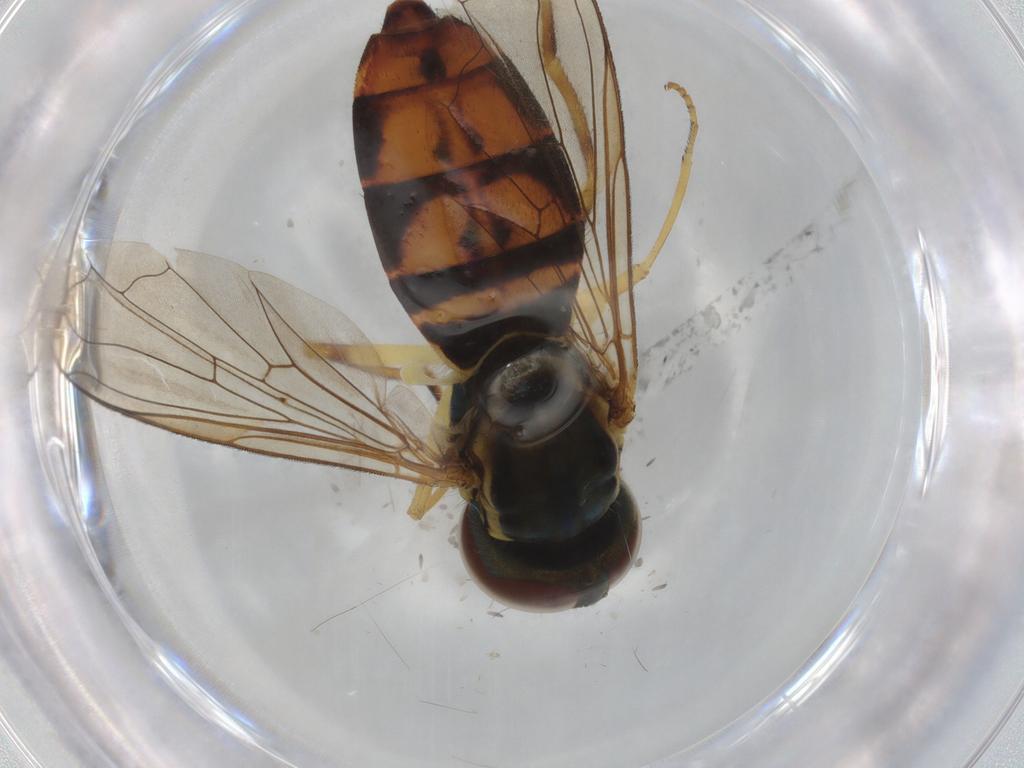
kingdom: Animalia
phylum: Arthropoda
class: Insecta
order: Diptera
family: Syrphidae
